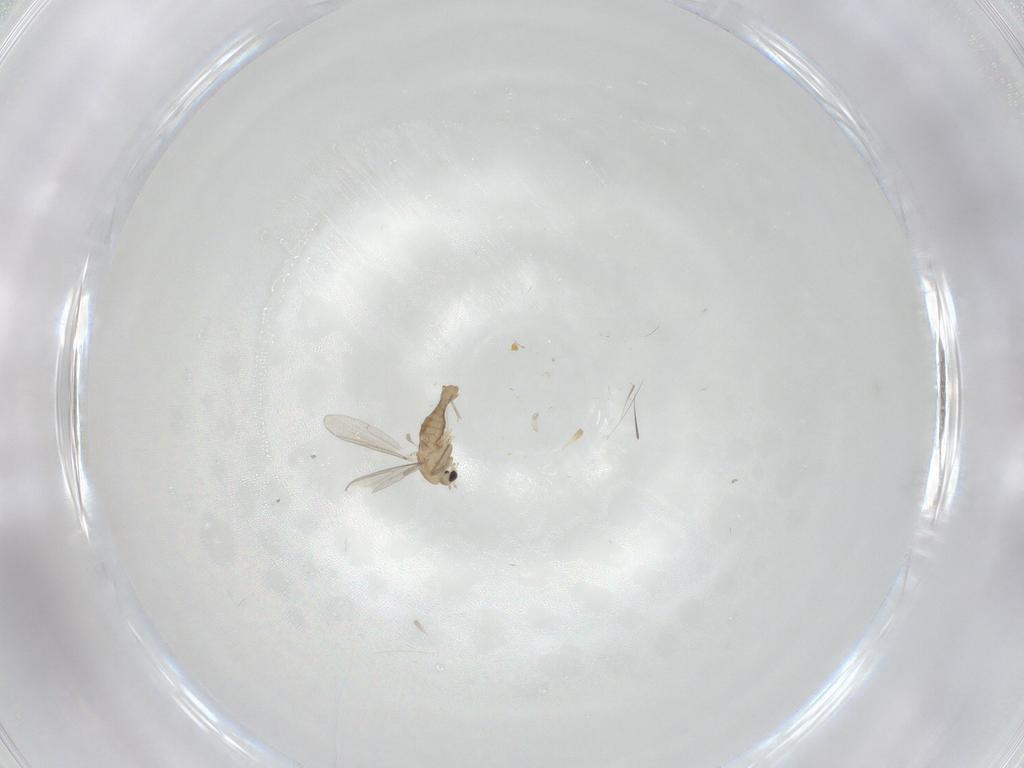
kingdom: Animalia
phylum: Arthropoda
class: Insecta
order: Diptera
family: Chironomidae
